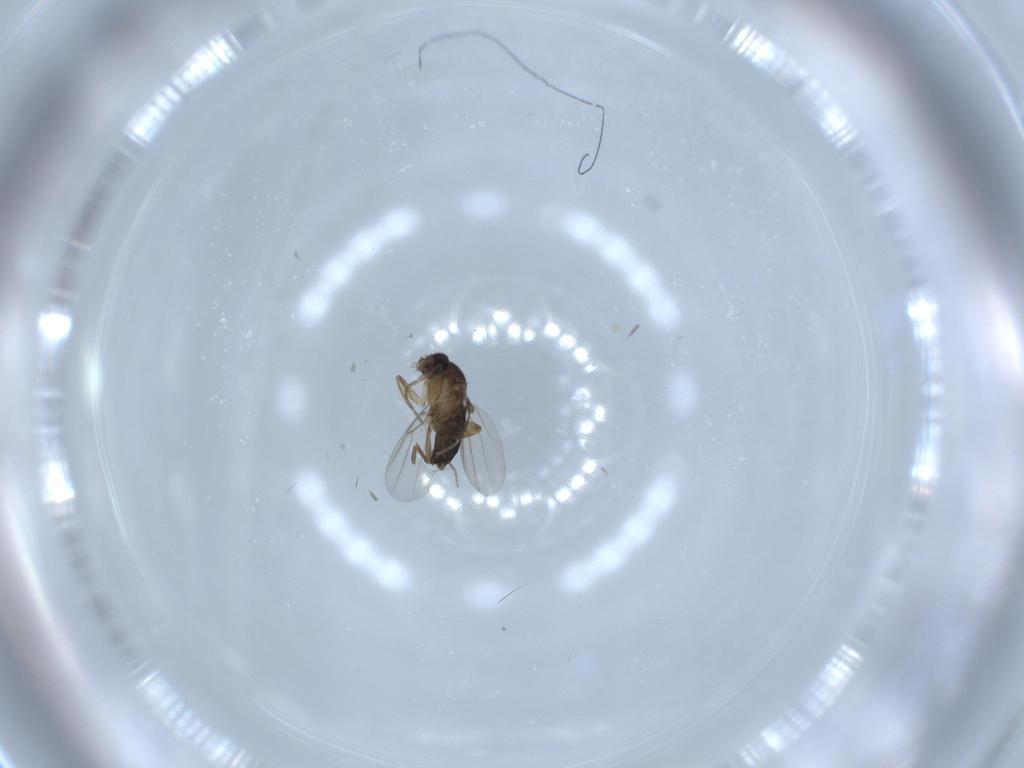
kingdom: Animalia
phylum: Arthropoda
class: Insecta
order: Diptera
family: Phoridae
